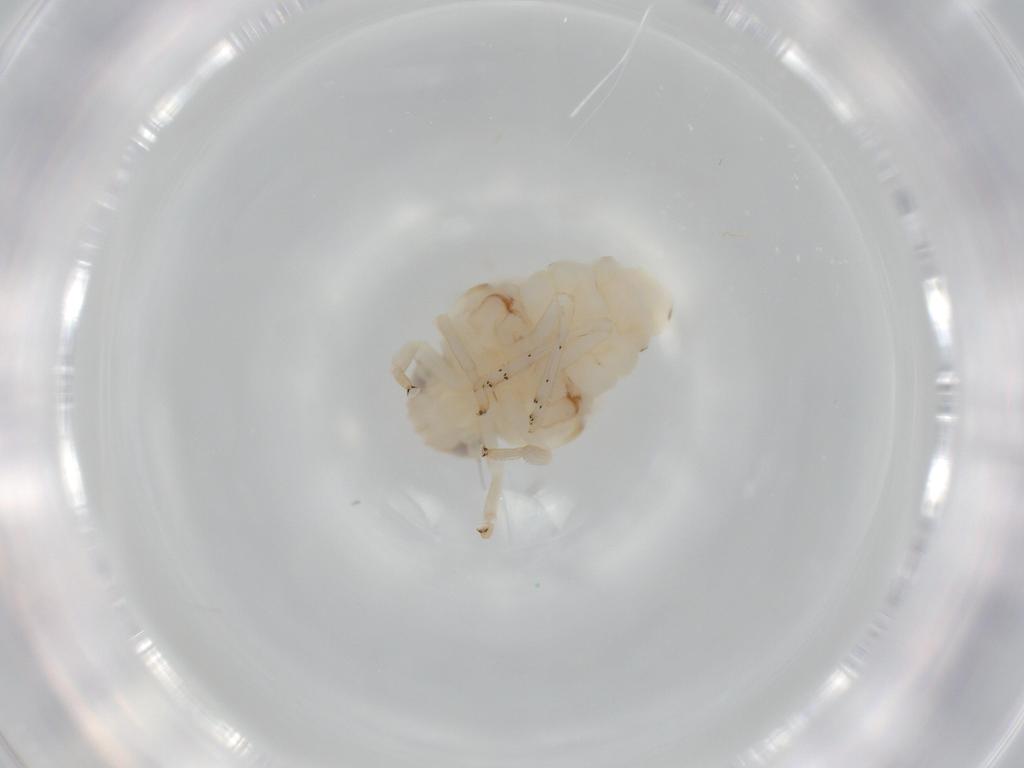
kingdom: Animalia
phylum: Arthropoda
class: Insecta
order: Hemiptera
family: Nogodinidae
